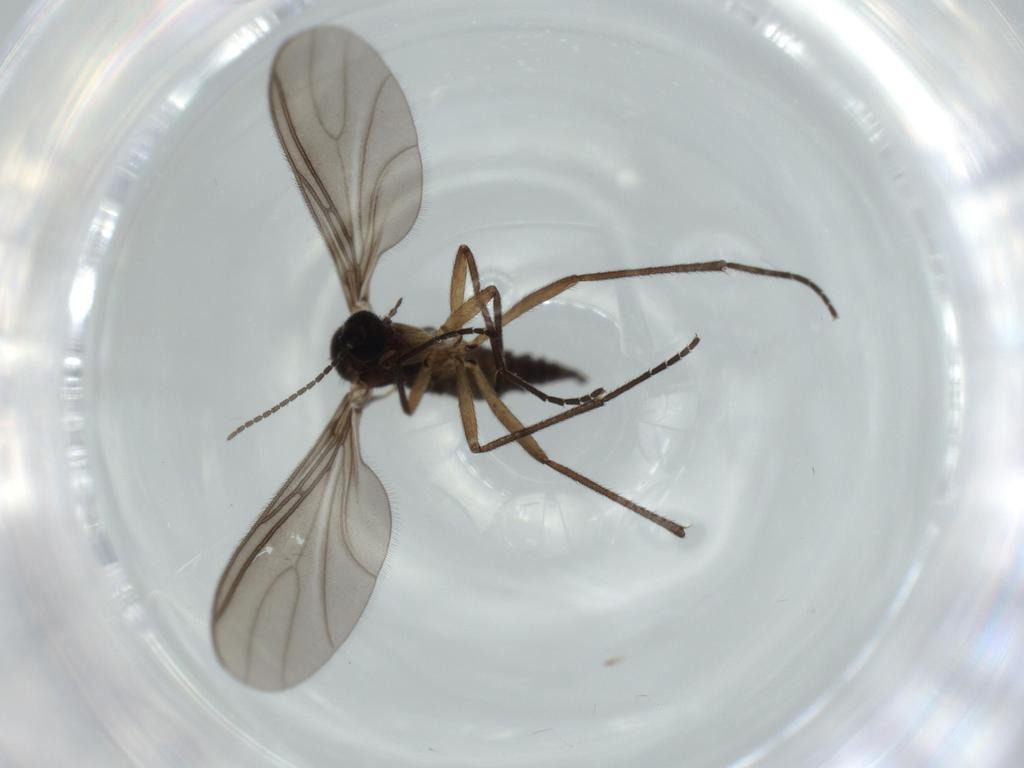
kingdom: Animalia
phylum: Arthropoda
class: Insecta
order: Diptera
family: Sciaridae
